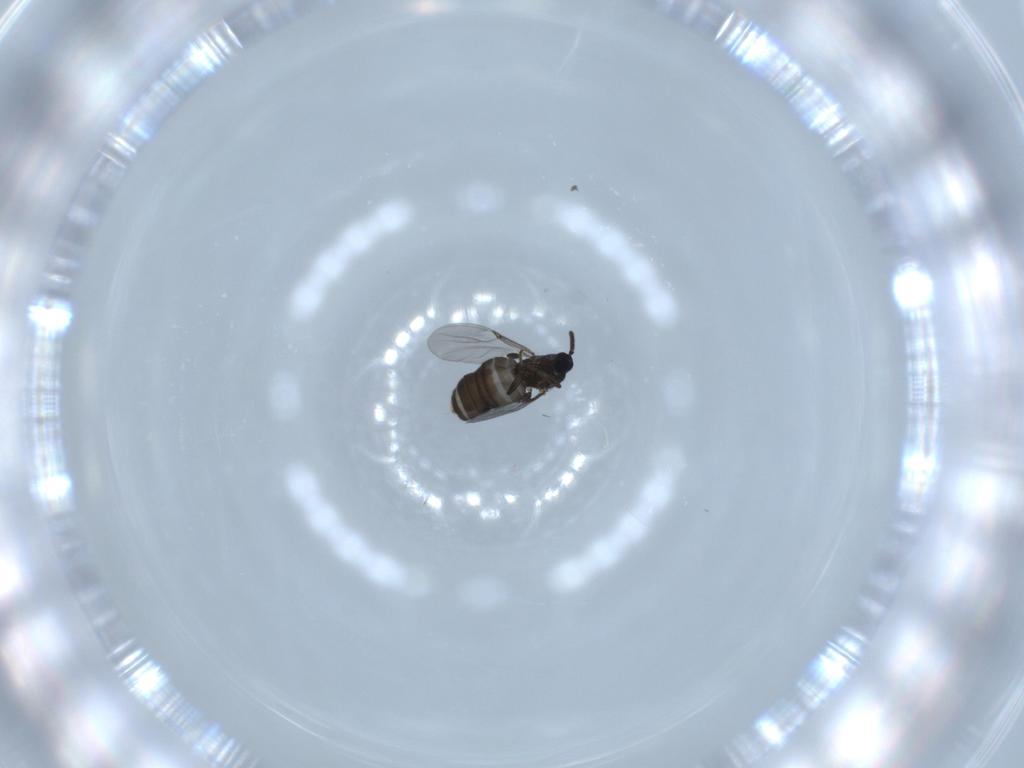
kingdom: Animalia
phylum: Arthropoda
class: Insecta
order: Diptera
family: Scatopsidae
